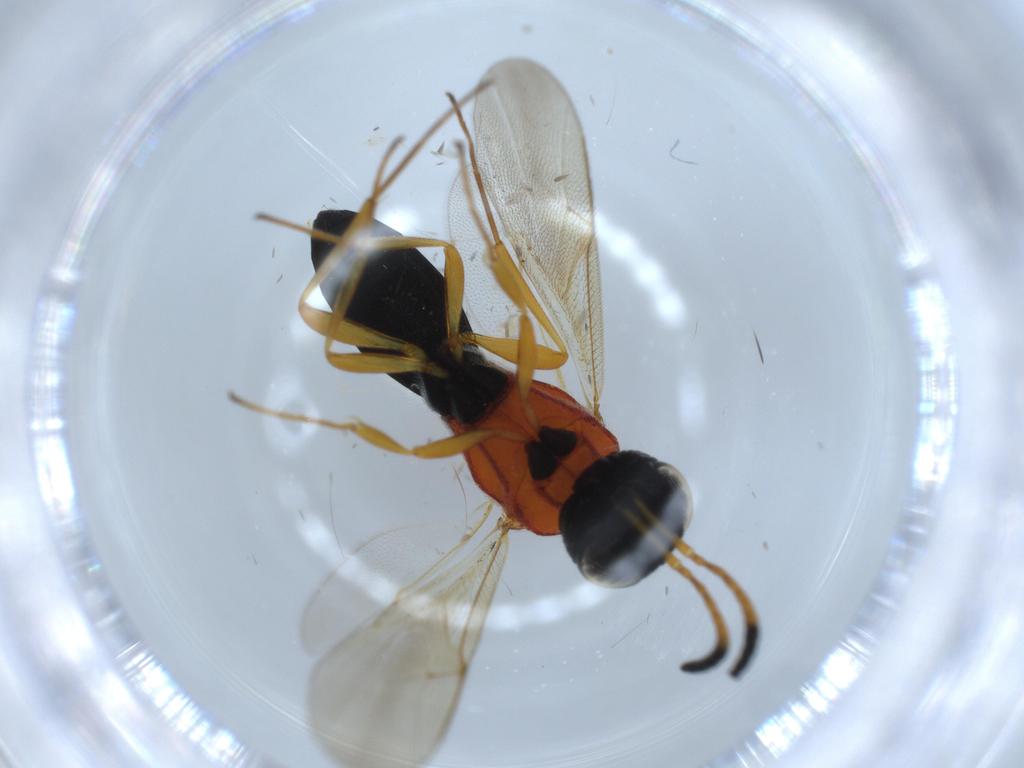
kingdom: Animalia
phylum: Arthropoda
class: Insecta
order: Hymenoptera
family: Scelionidae
